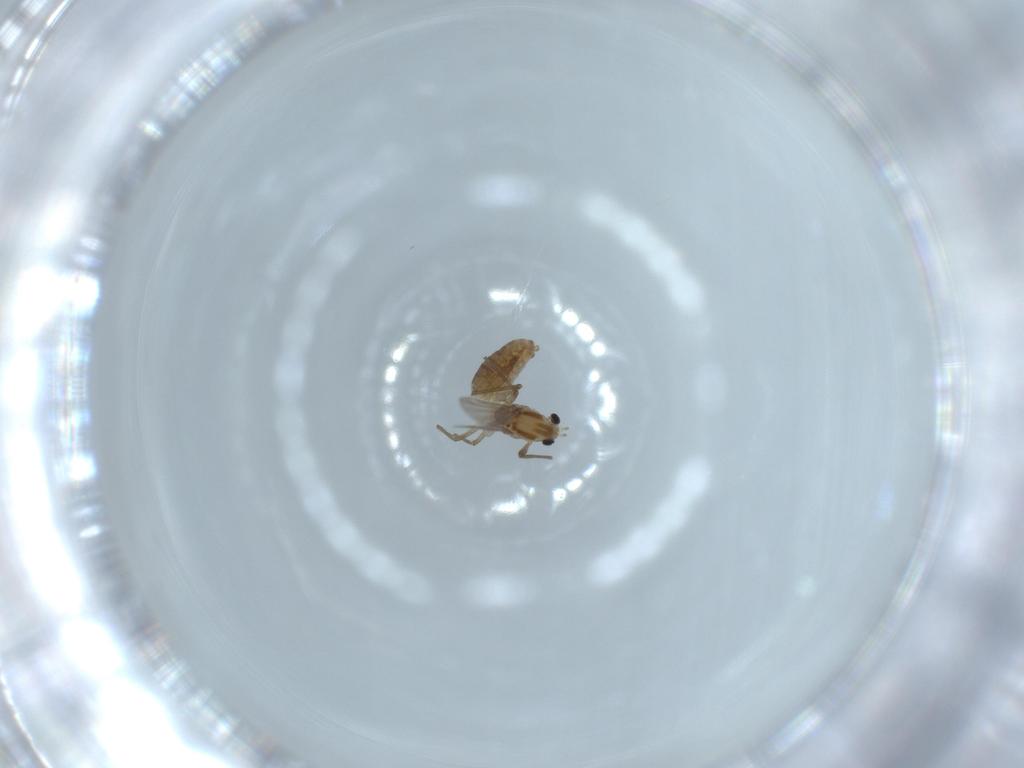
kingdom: Animalia
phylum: Arthropoda
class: Insecta
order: Diptera
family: Chironomidae
